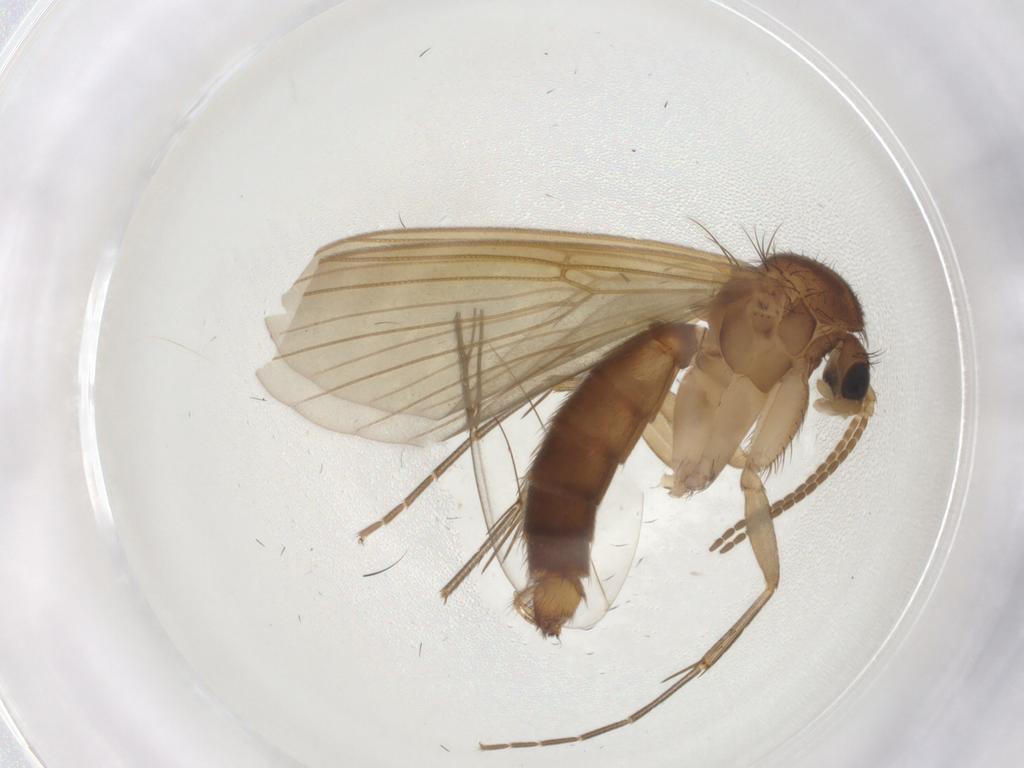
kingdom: Animalia
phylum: Arthropoda
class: Insecta
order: Diptera
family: Mycetophilidae
